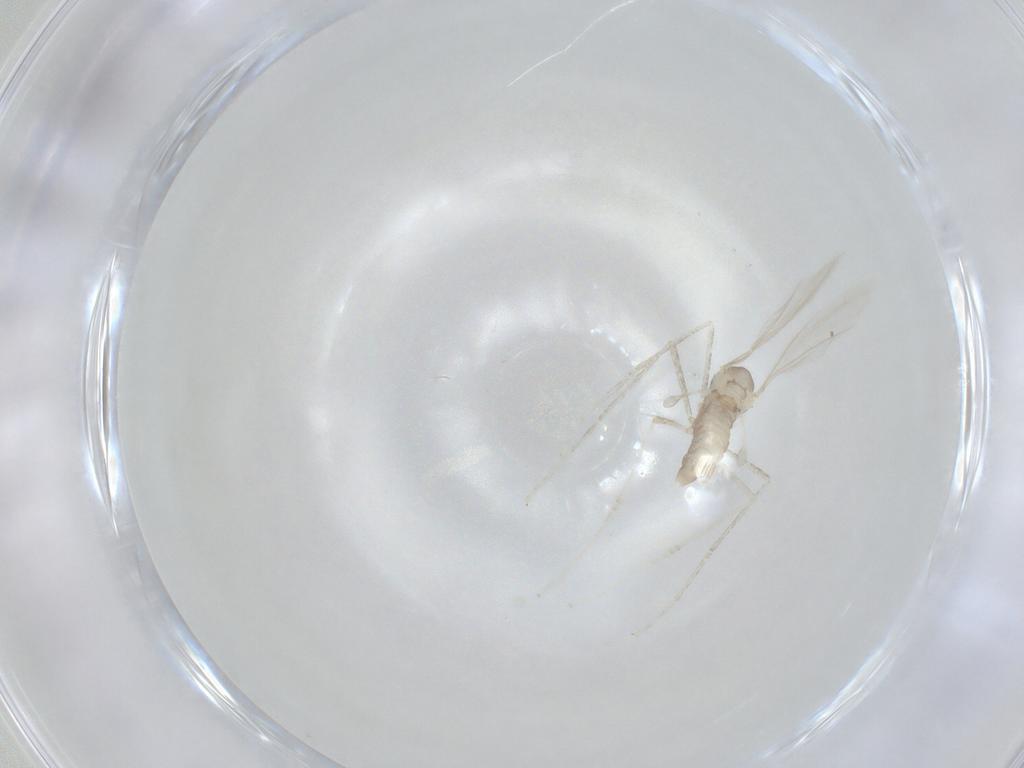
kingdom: Animalia
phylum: Arthropoda
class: Insecta
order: Diptera
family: Cecidomyiidae
